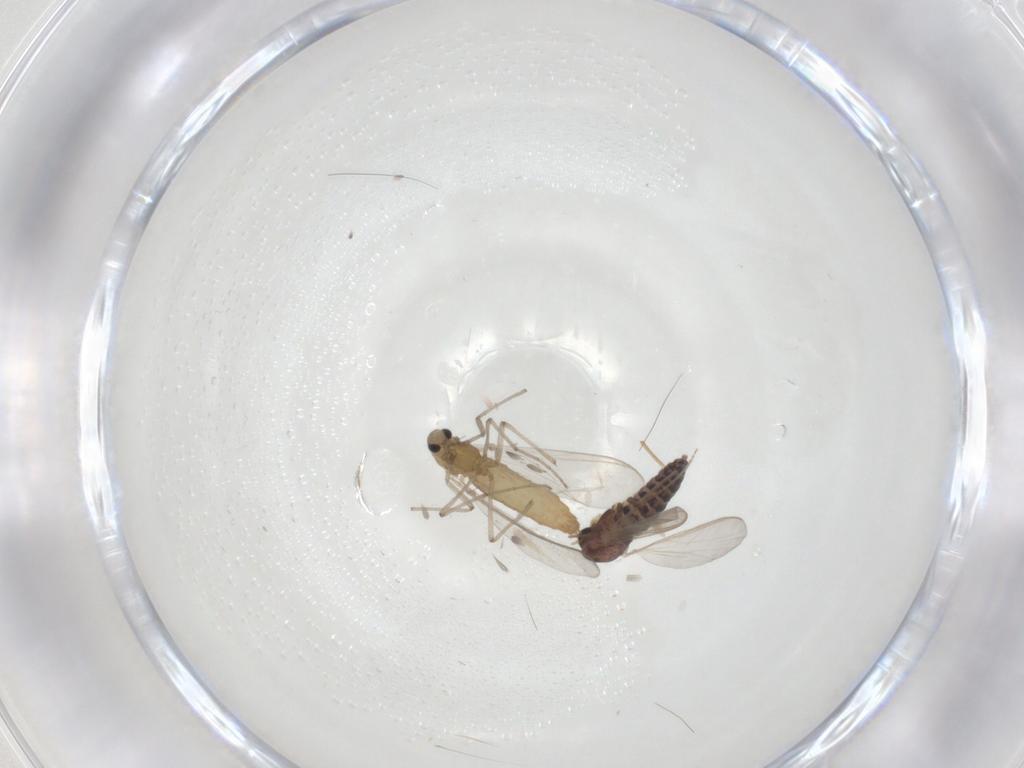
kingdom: Animalia
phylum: Arthropoda
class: Insecta
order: Diptera
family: Chironomidae
